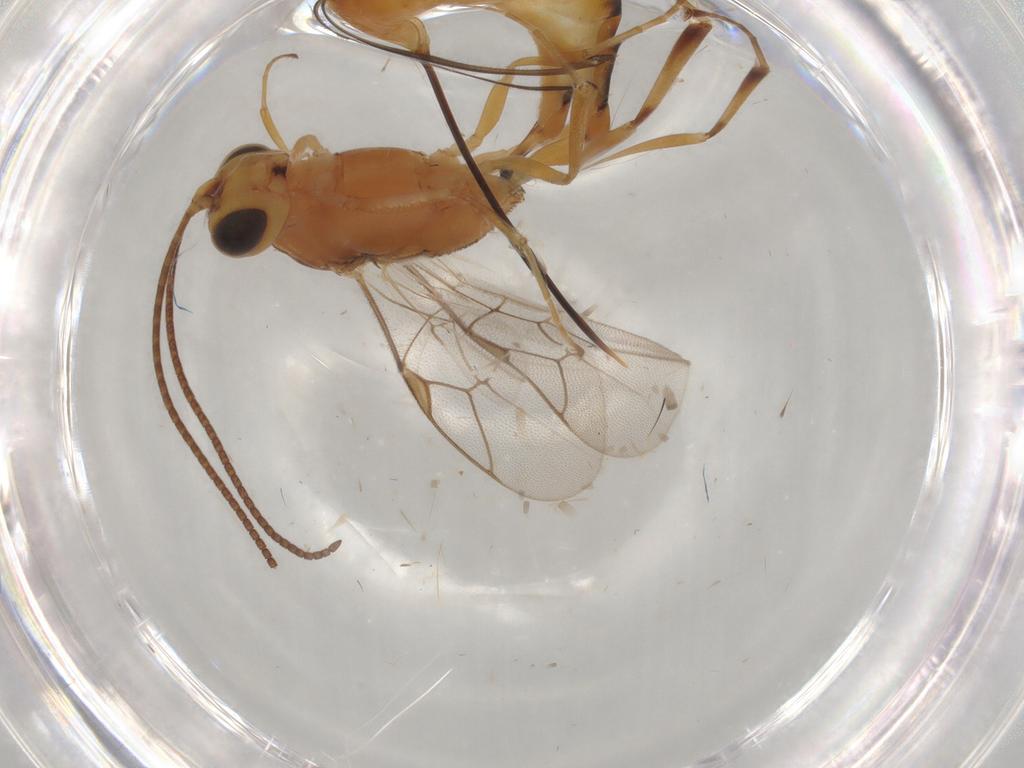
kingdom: Animalia
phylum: Arthropoda
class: Insecta
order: Hymenoptera
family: Ichneumonidae
